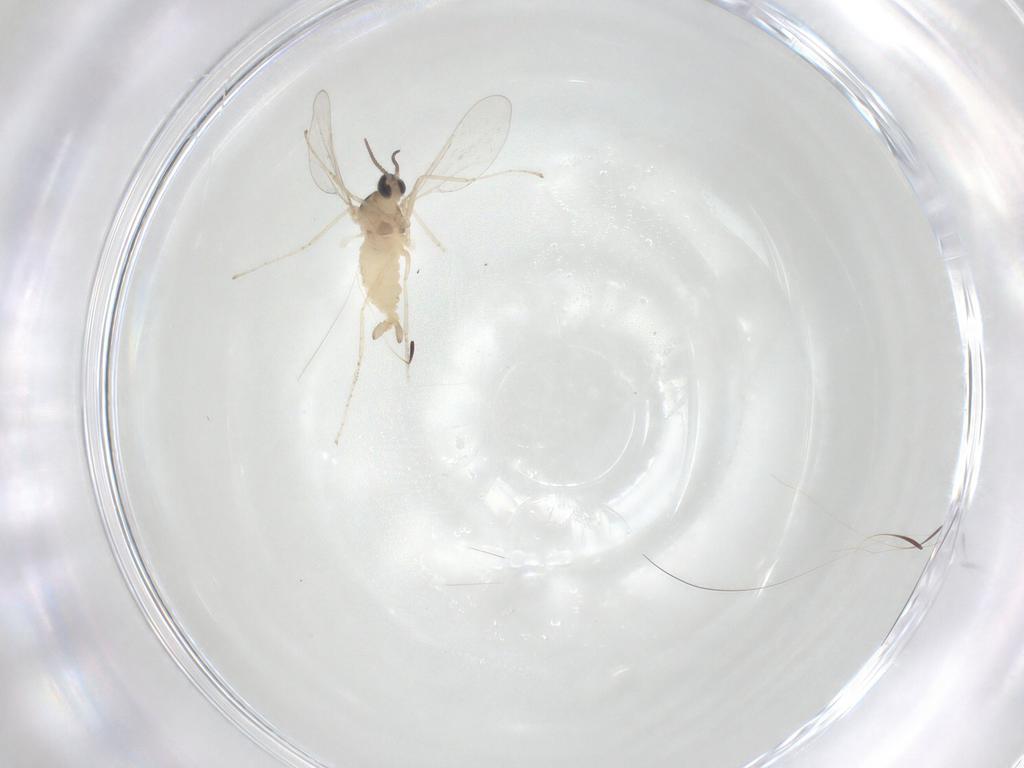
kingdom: Animalia
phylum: Arthropoda
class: Insecta
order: Diptera
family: Cecidomyiidae
